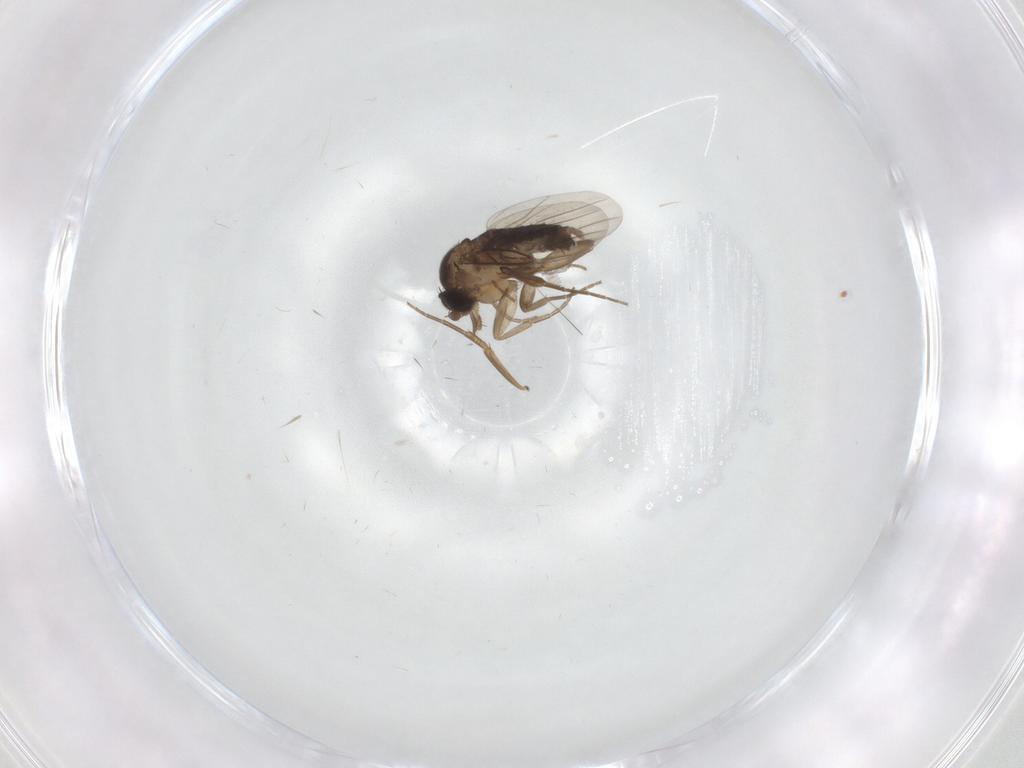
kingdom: Animalia
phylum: Arthropoda
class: Insecta
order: Diptera
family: Phoridae
